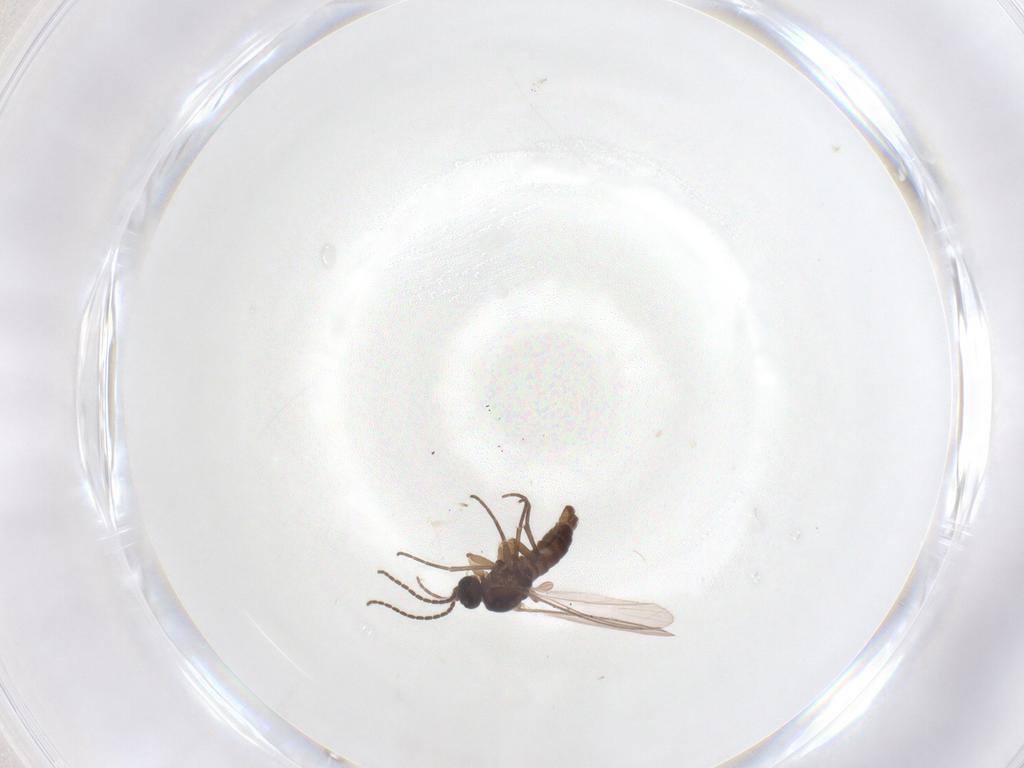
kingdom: Animalia
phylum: Arthropoda
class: Insecta
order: Diptera
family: Sciaridae
